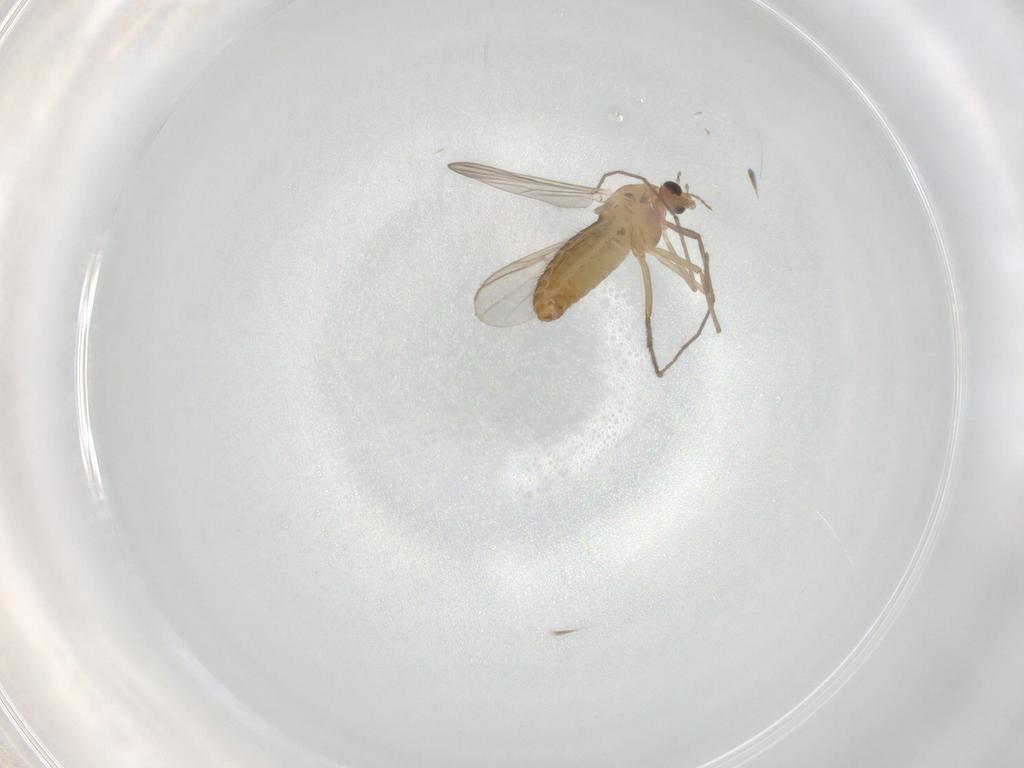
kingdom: Animalia
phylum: Arthropoda
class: Insecta
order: Diptera
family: Chironomidae
